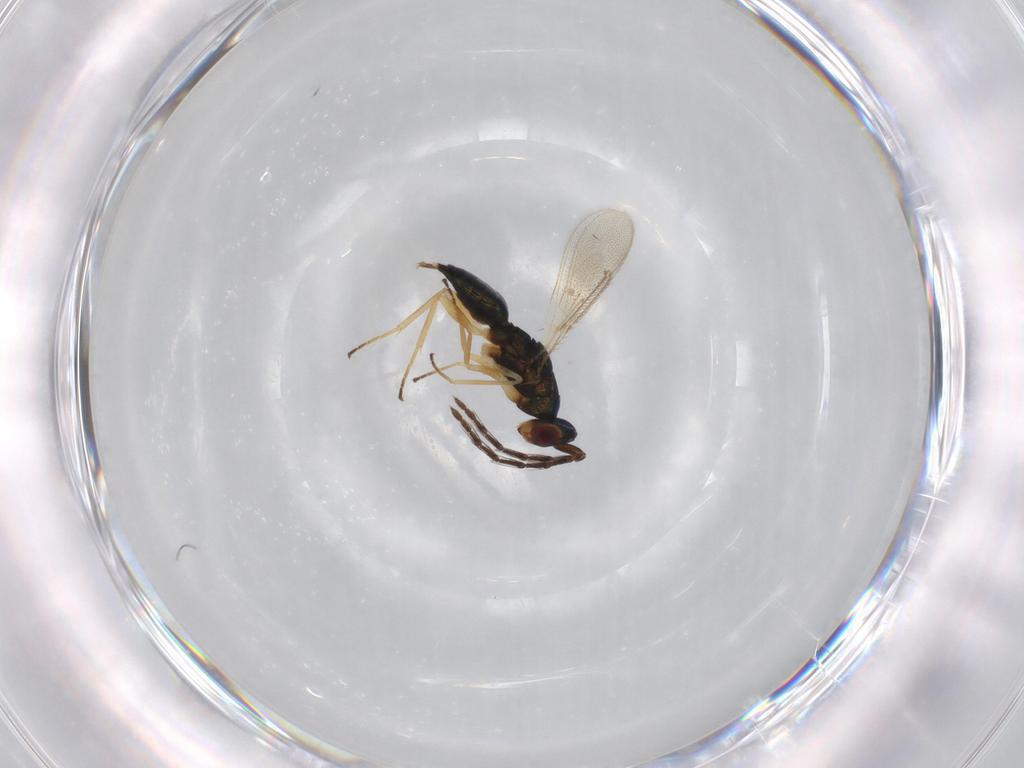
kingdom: Animalia
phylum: Arthropoda
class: Insecta
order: Hymenoptera
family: Eulophidae
